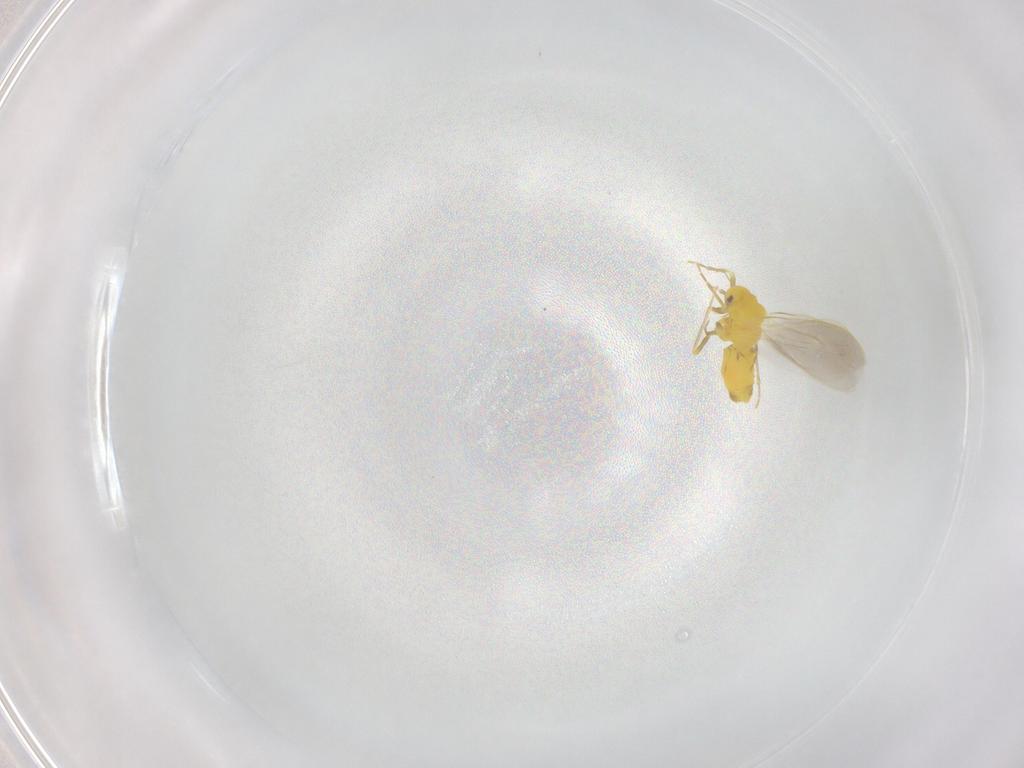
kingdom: Animalia
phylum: Arthropoda
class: Insecta
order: Hemiptera
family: Aleyrodidae
